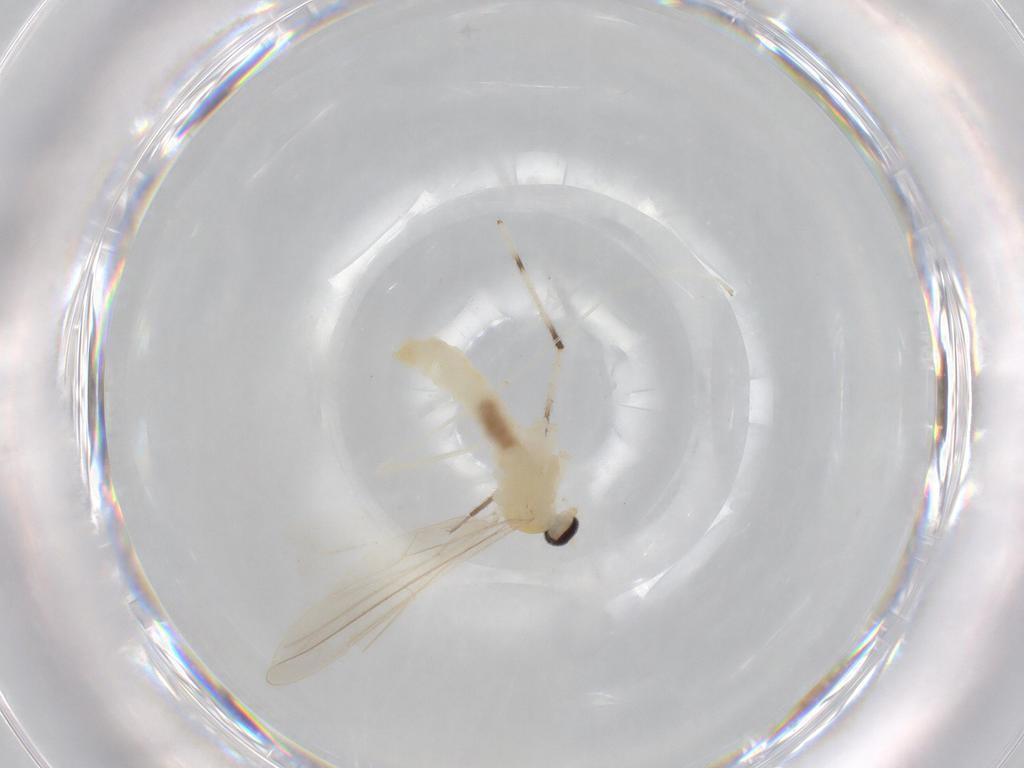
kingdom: Animalia
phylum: Arthropoda
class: Insecta
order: Diptera
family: Cecidomyiidae
